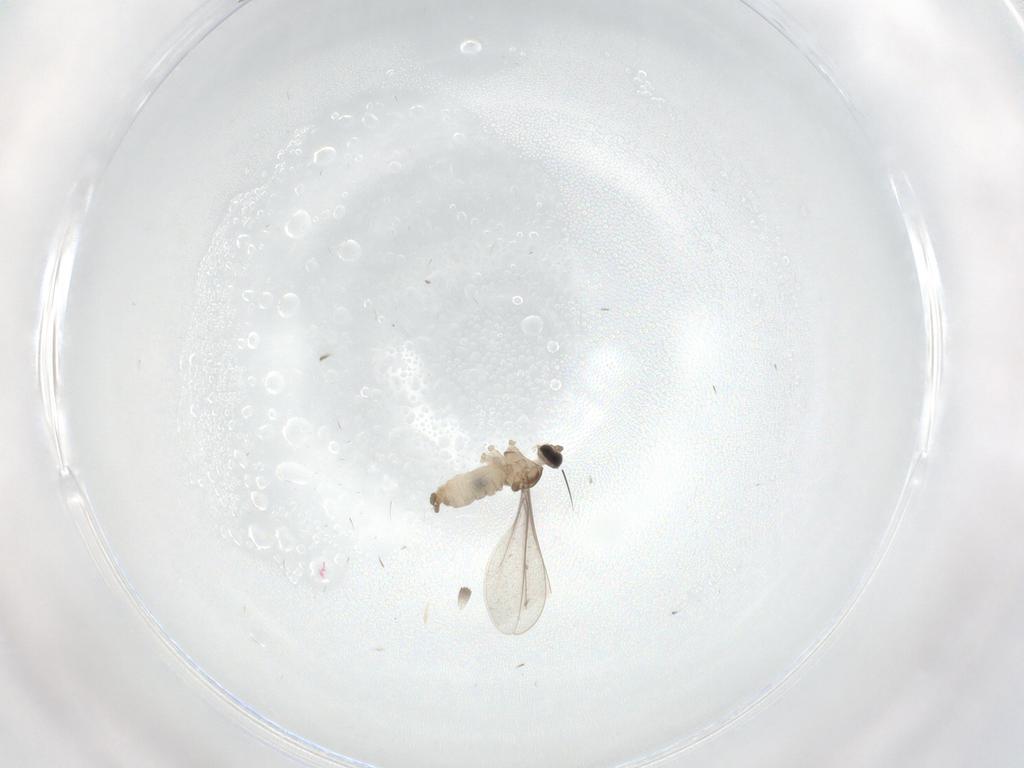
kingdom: Animalia
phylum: Arthropoda
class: Insecta
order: Diptera
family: Cecidomyiidae
